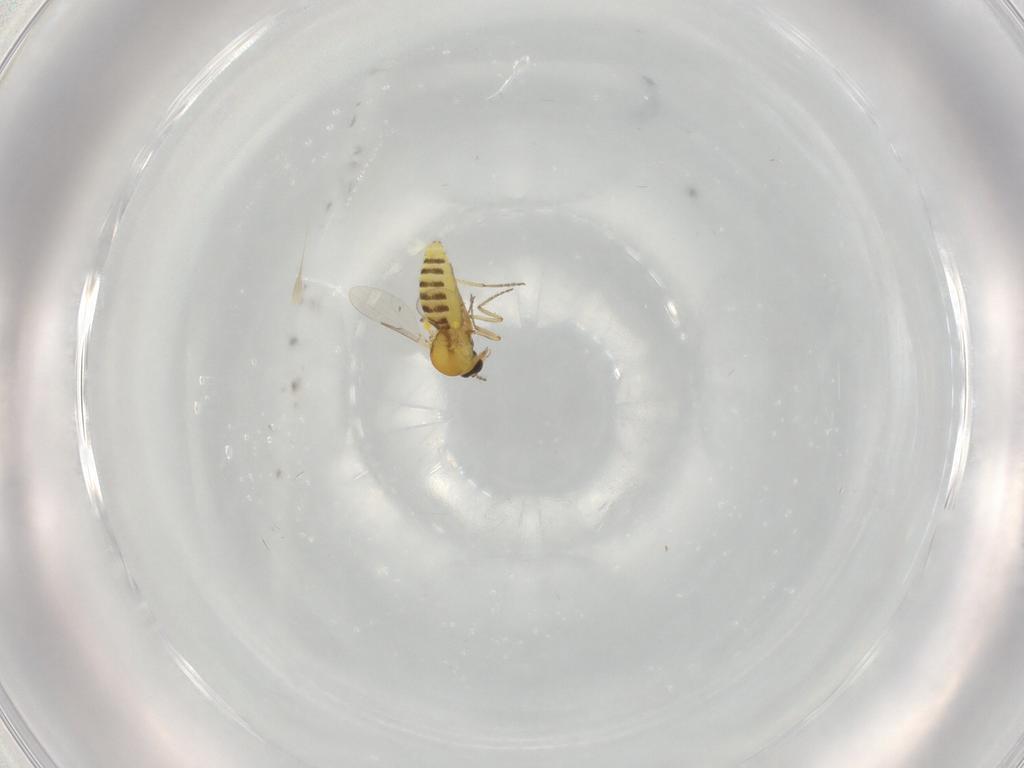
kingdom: Animalia
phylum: Arthropoda
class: Insecta
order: Diptera
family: Ceratopogonidae
